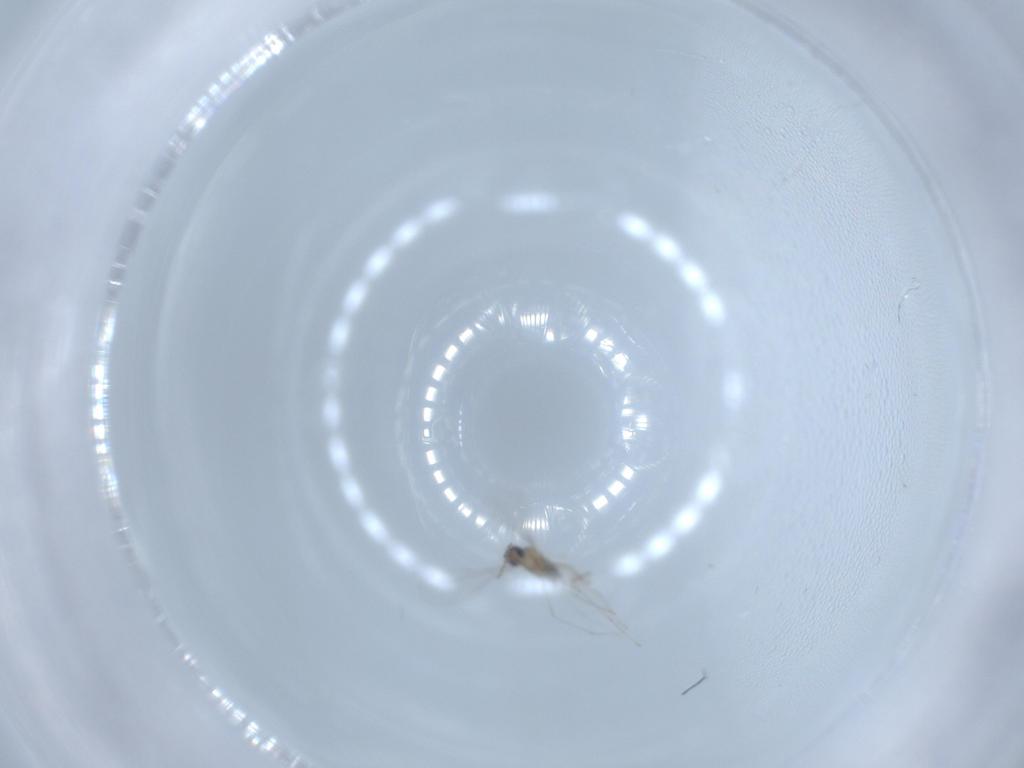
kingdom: Animalia
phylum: Arthropoda
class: Insecta
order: Diptera
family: Cecidomyiidae
